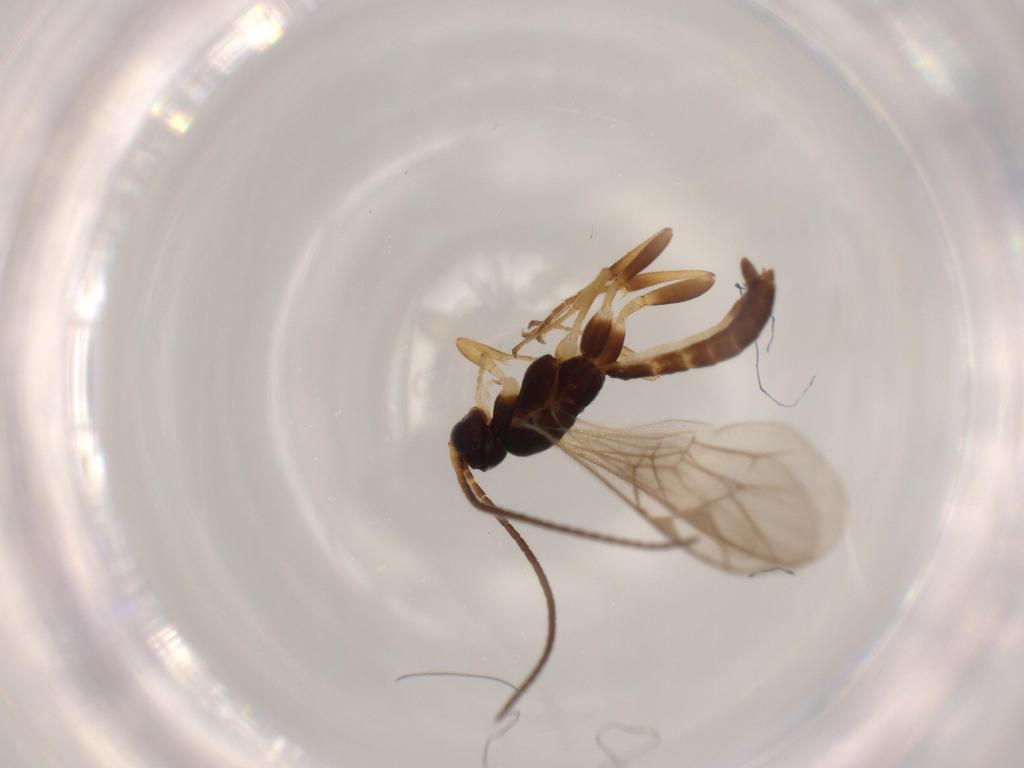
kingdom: Animalia
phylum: Arthropoda
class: Insecta
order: Hymenoptera
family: Ichneumonidae
